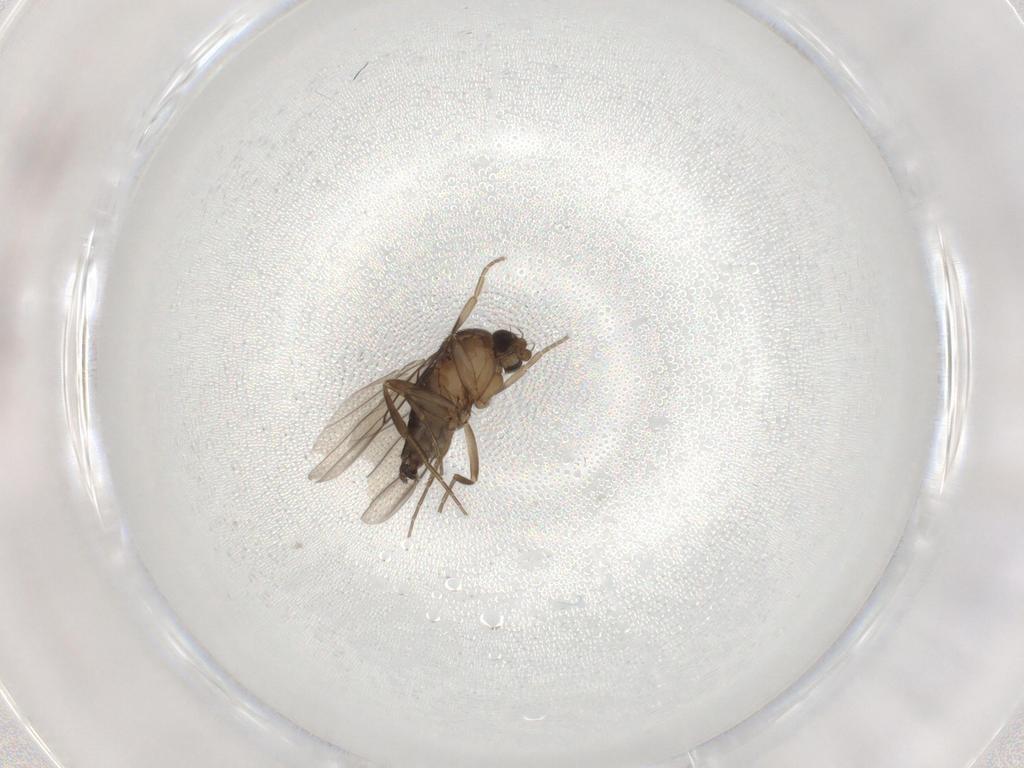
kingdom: Animalia
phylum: Arthropoda
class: Insecta
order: Diptera
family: Phoridae
